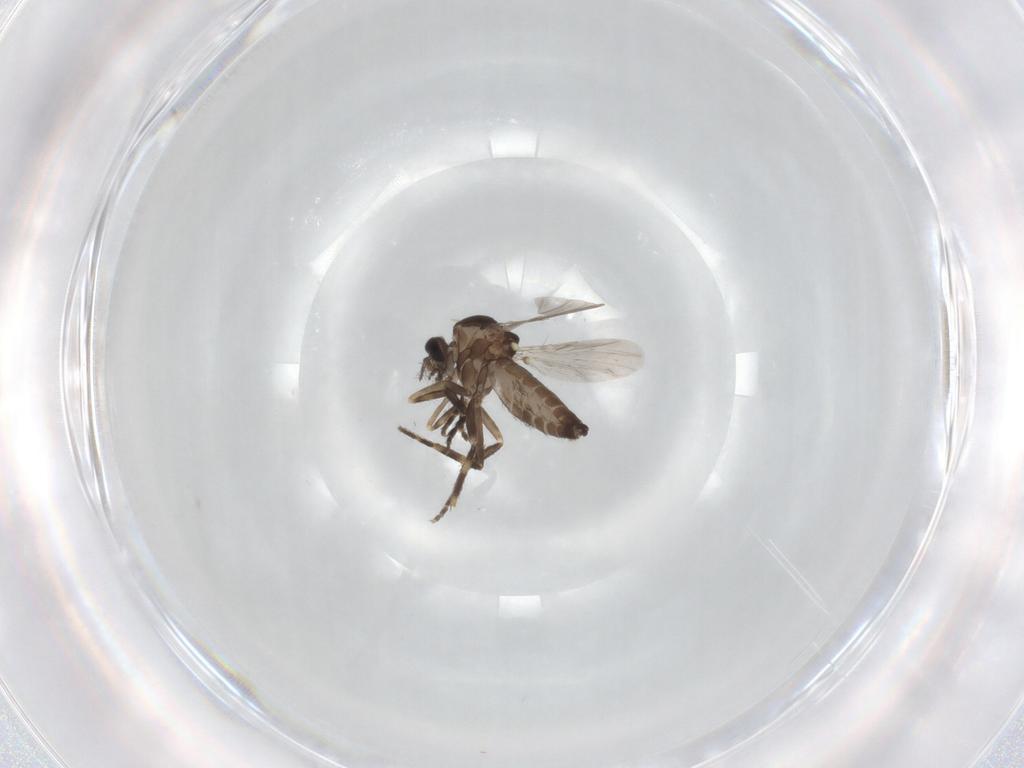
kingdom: Animalia
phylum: Arthropoda
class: Insecta
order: Diptera
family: Ceratopogonidae
